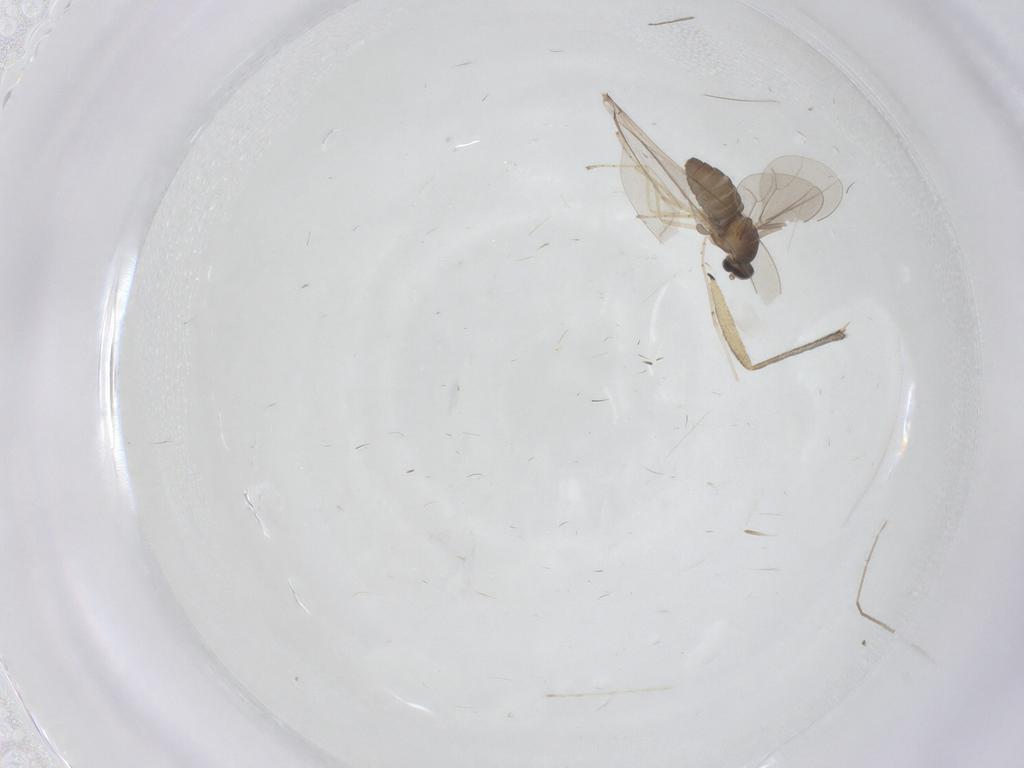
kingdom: Animalia
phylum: Arthropoda
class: Insecta
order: Diptera
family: Cecidomyiidae
